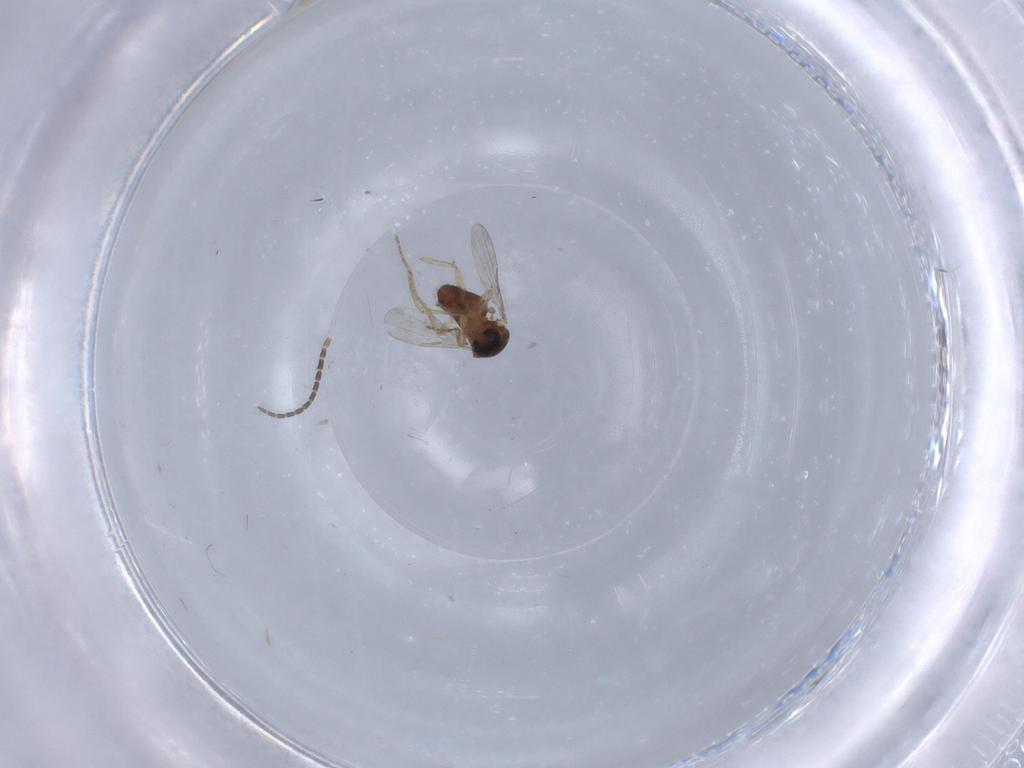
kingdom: Animalia
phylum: Arthropoda
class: Insecta
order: Diptera
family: Ceratopogonidae
